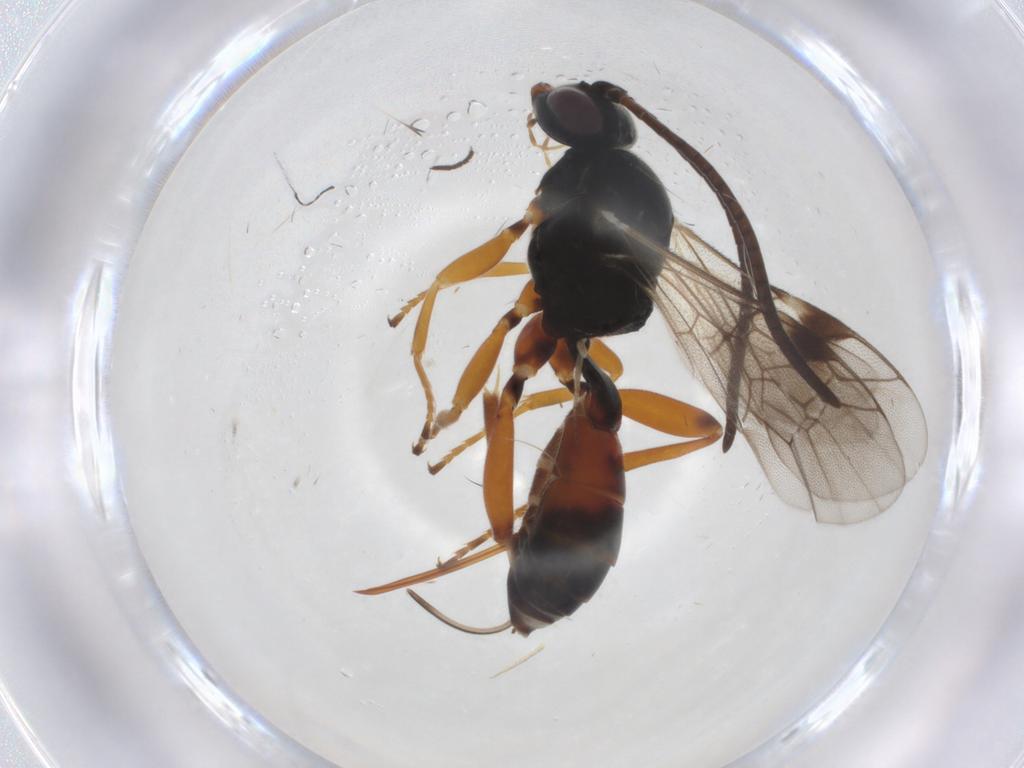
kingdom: Animalia
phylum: Arthropoda
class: Insecta
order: Hymenoptera
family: Ichneumonidae
